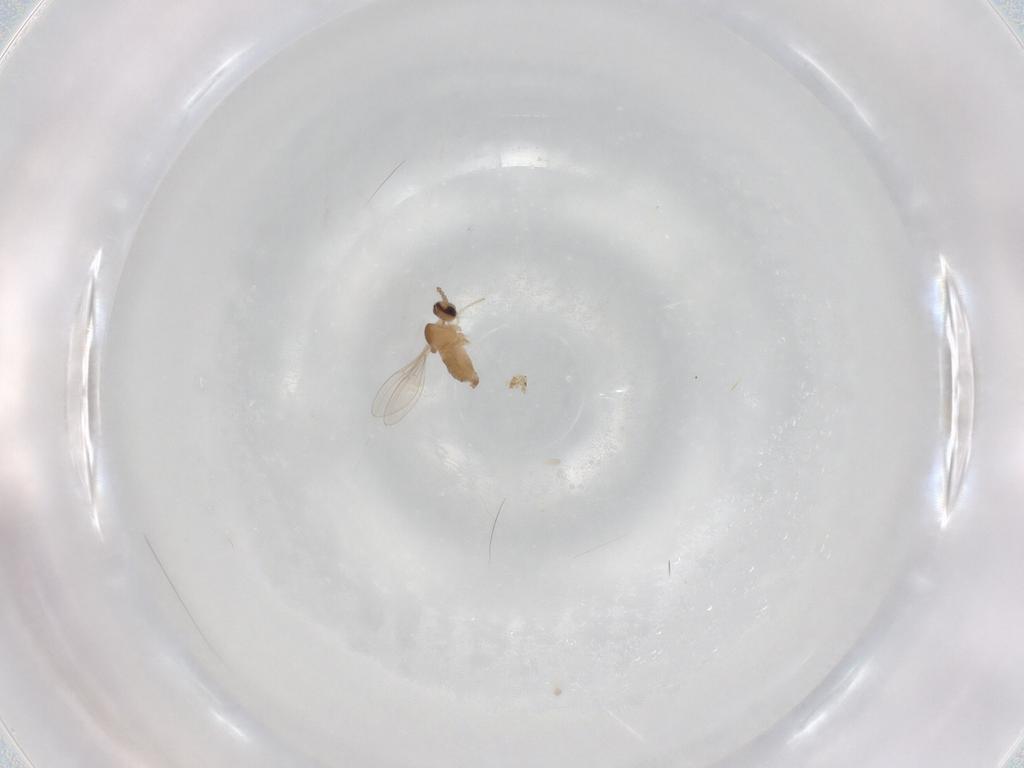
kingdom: Animalia
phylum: Arthropoda
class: Insecta
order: Diptera
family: Cecidomyiidae
